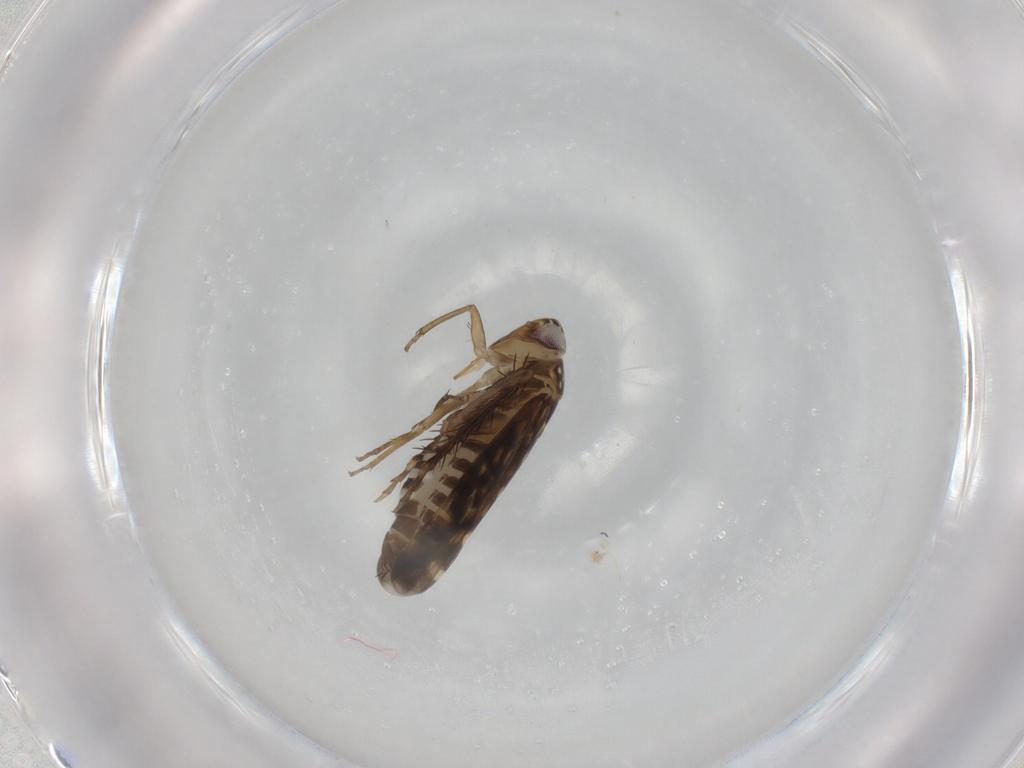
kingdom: Animalia
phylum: Arthropoda
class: Insecta
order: Hemiptera
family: Cicadellidae
